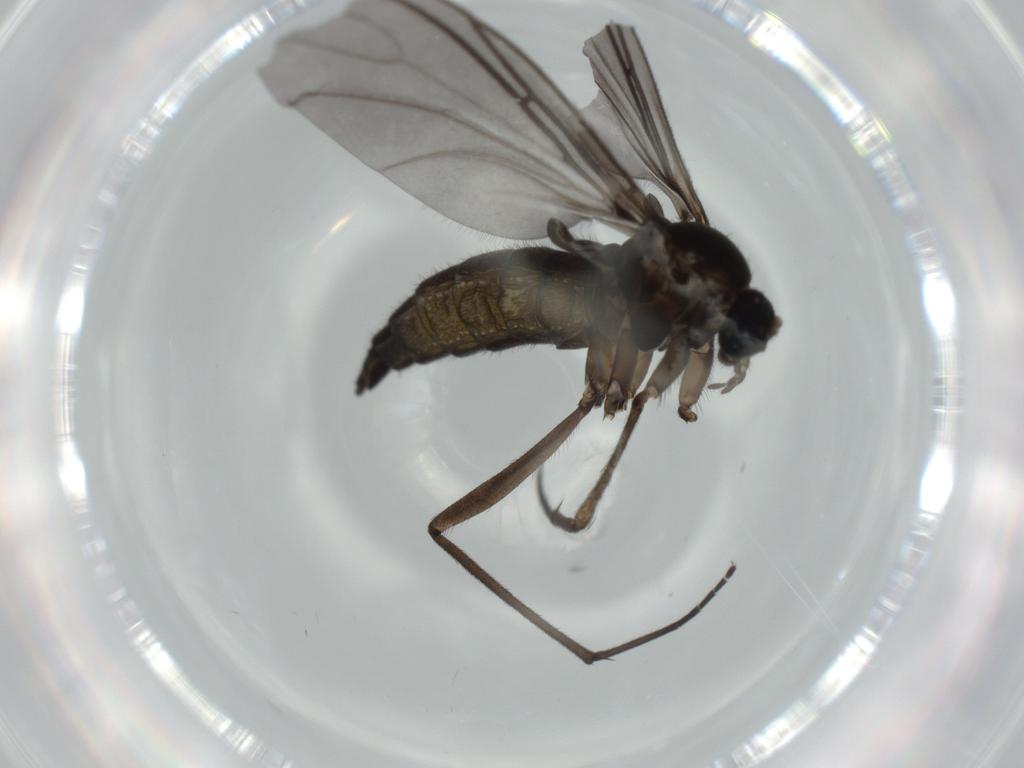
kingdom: Animalia
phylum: Arthropoda
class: Insecta
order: Diptera
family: Sciaridae
